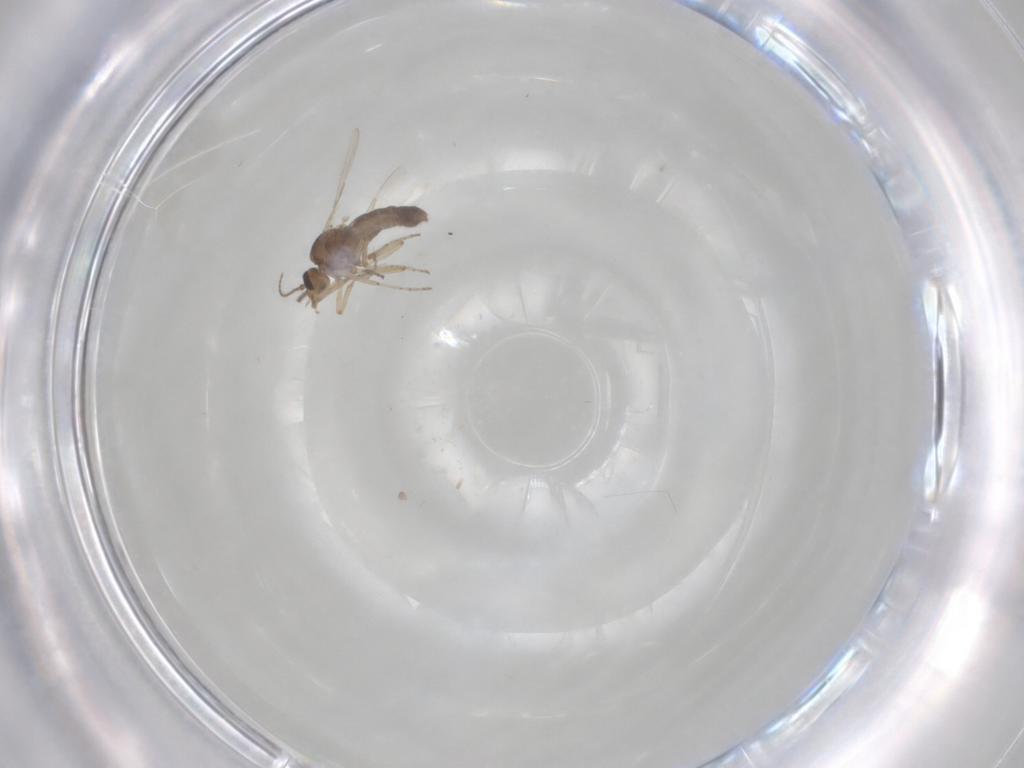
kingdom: Animalia
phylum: Arthropoda
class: Insecta
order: Diptera
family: Ceratopogonidae
